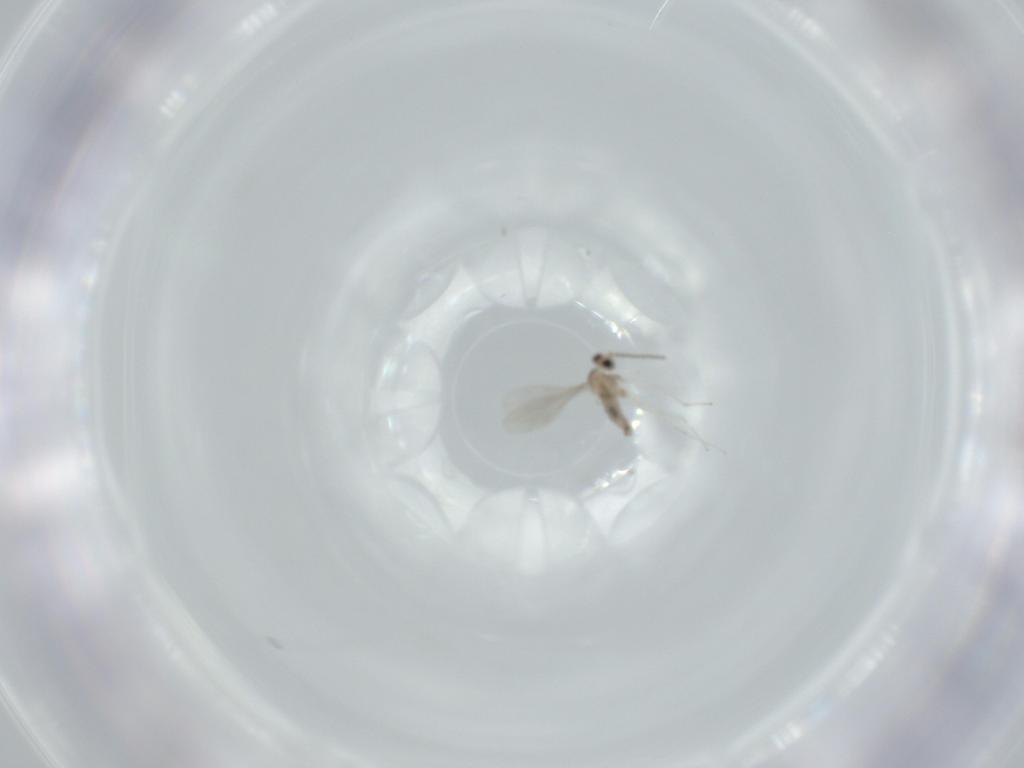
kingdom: Animalia
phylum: Arthropoda
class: Insecta
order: Diptera
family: Cecidomyiidae
